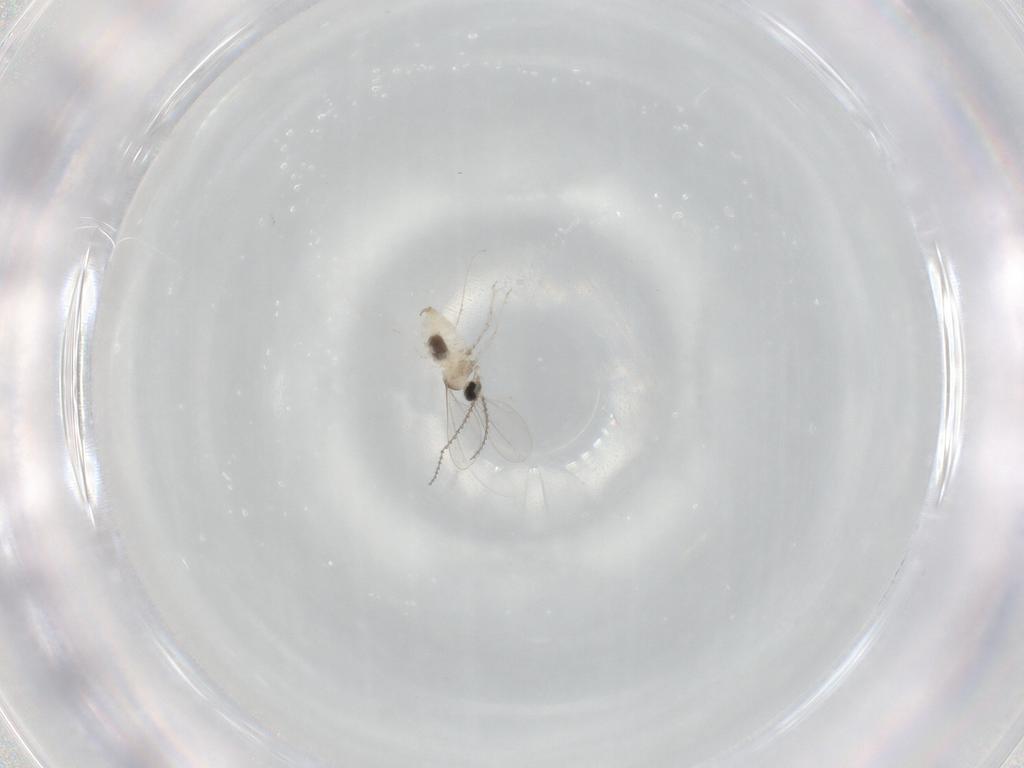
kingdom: Animalia
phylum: Arthropoda
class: Insecta
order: Diptera
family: Cecidomyiidae
